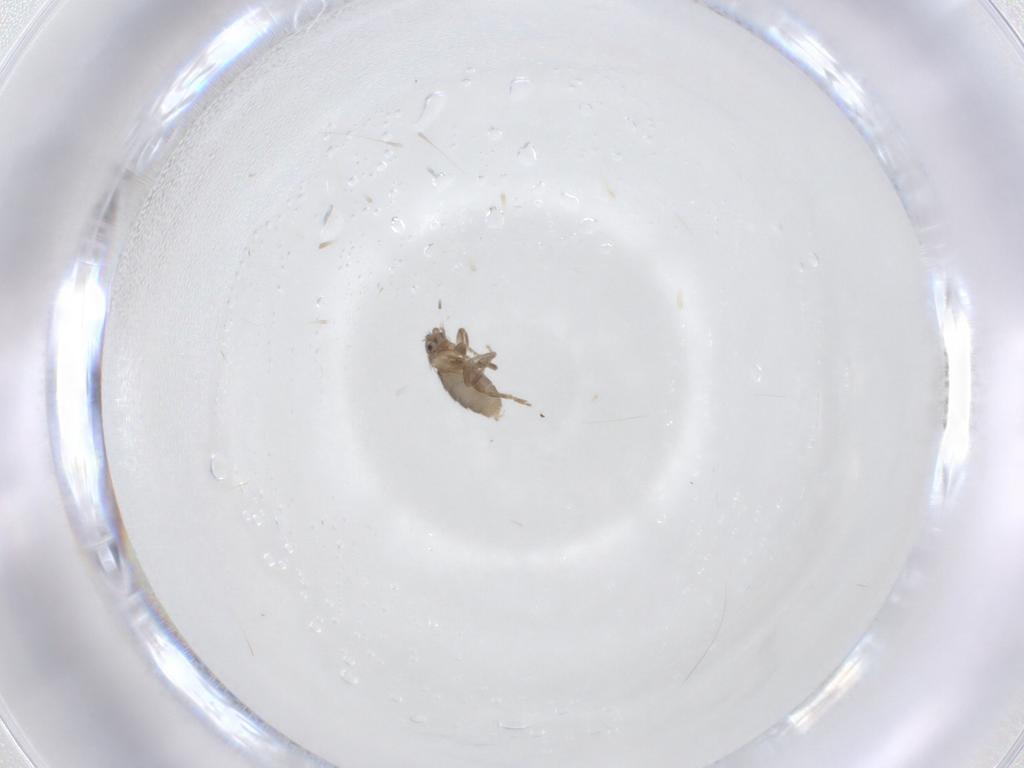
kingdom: Animalia
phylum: Arthropoda
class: Insecta
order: Diptera
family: Phoridae
